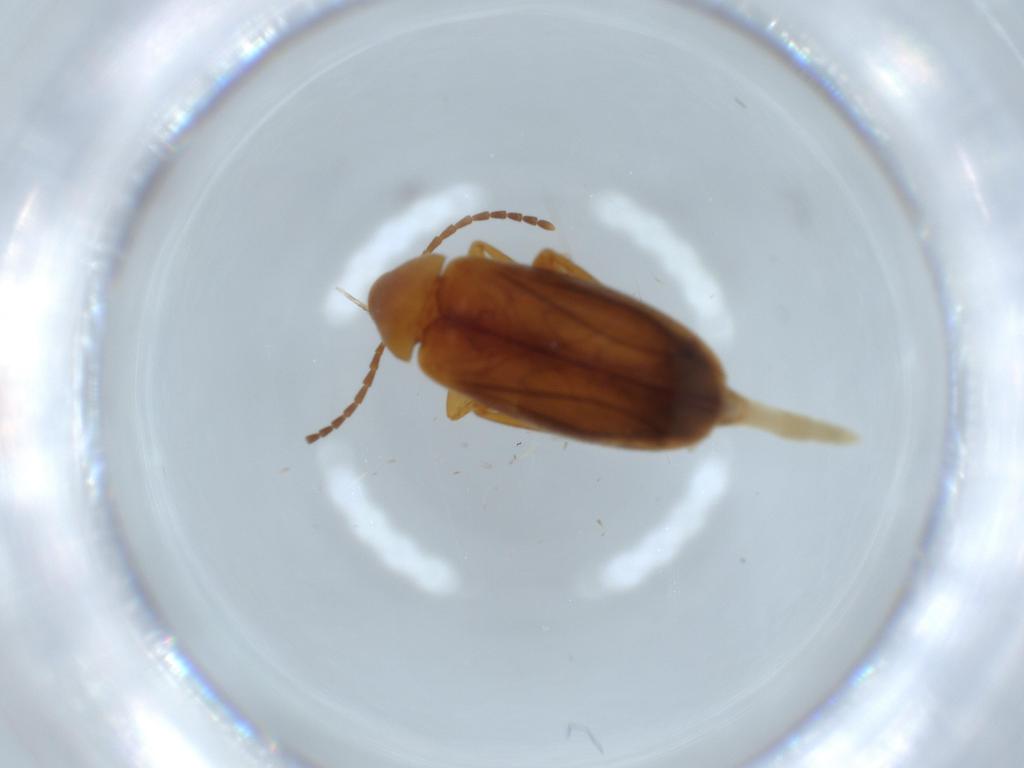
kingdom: Animalia
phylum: Arthropoda
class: Insecta
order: Coleoptera
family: Scraptiidae
